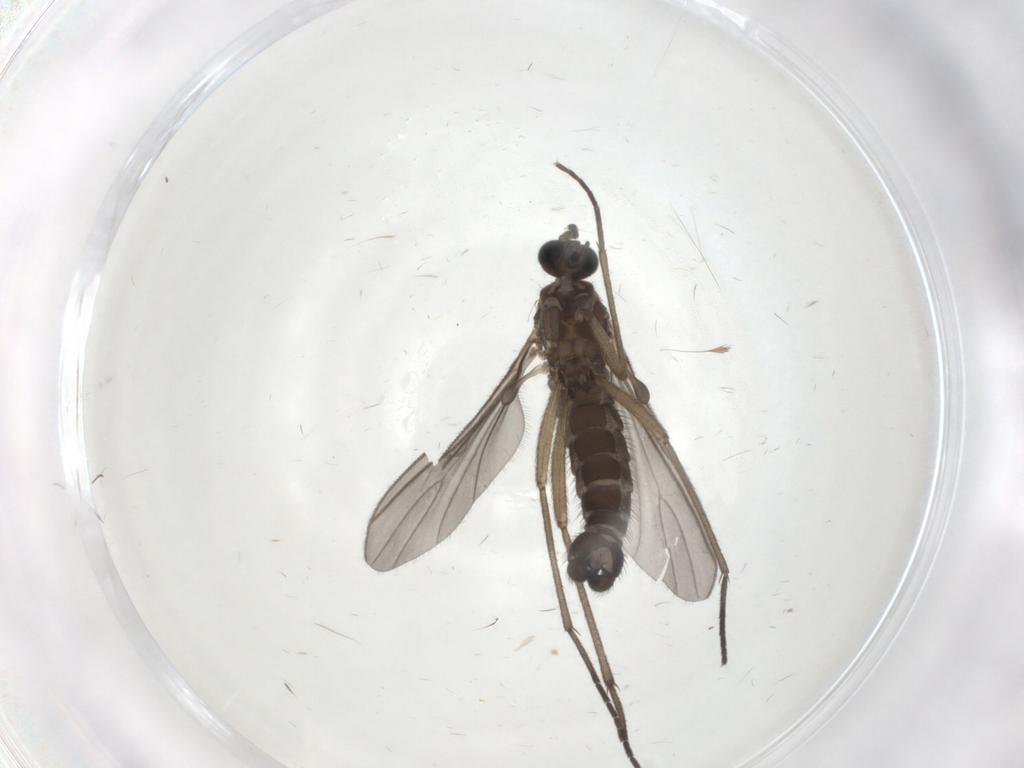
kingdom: Animalia
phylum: Arthropoda
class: Insecta
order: Diptera
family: Sciaridae
